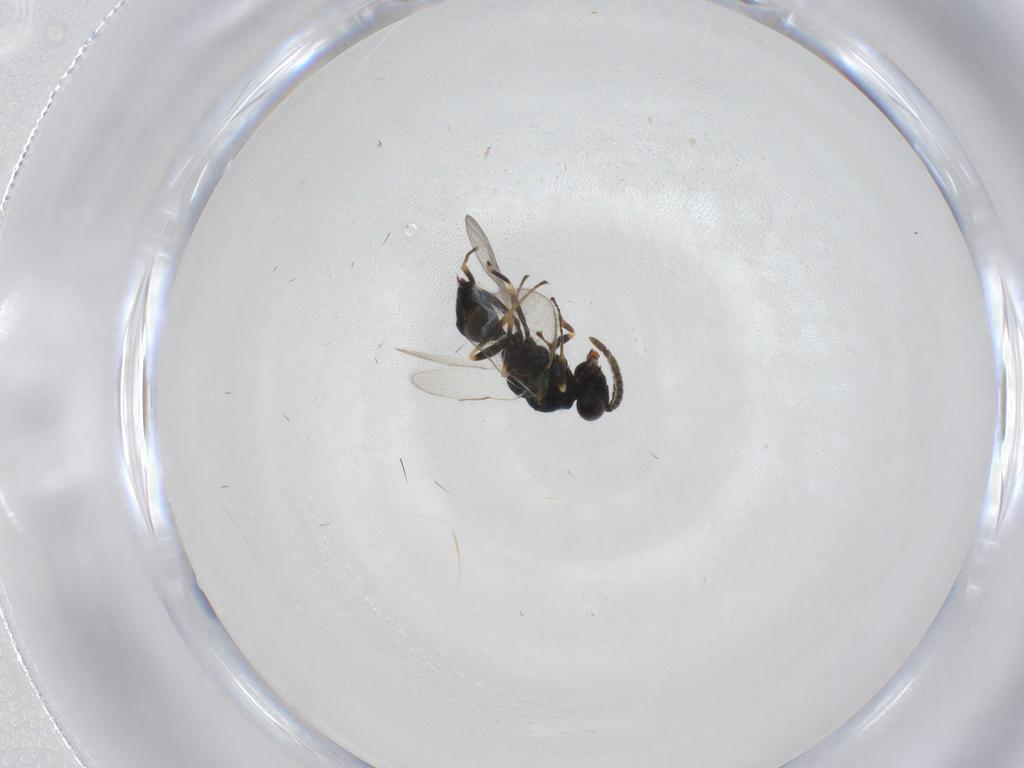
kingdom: Animalia
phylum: Arthropoda
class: Insecta
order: Hymenoptera
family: Pteromalidae
